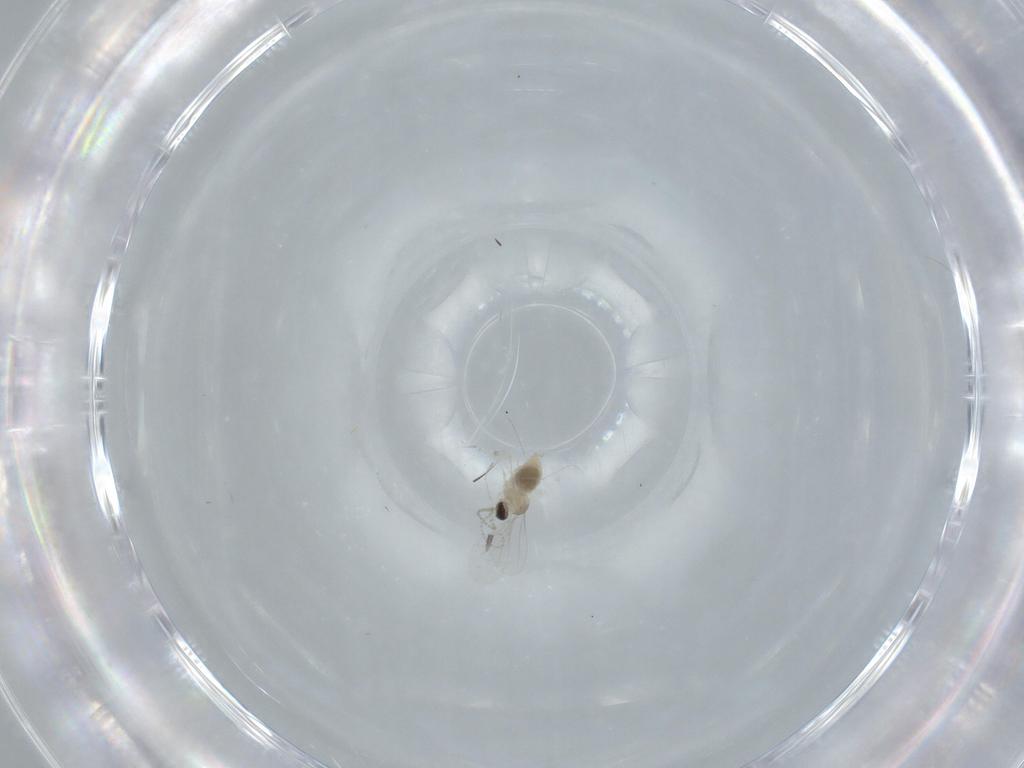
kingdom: Animalia
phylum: Arthropoda
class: Insecta
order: Diptera
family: Cecidomyiidae
